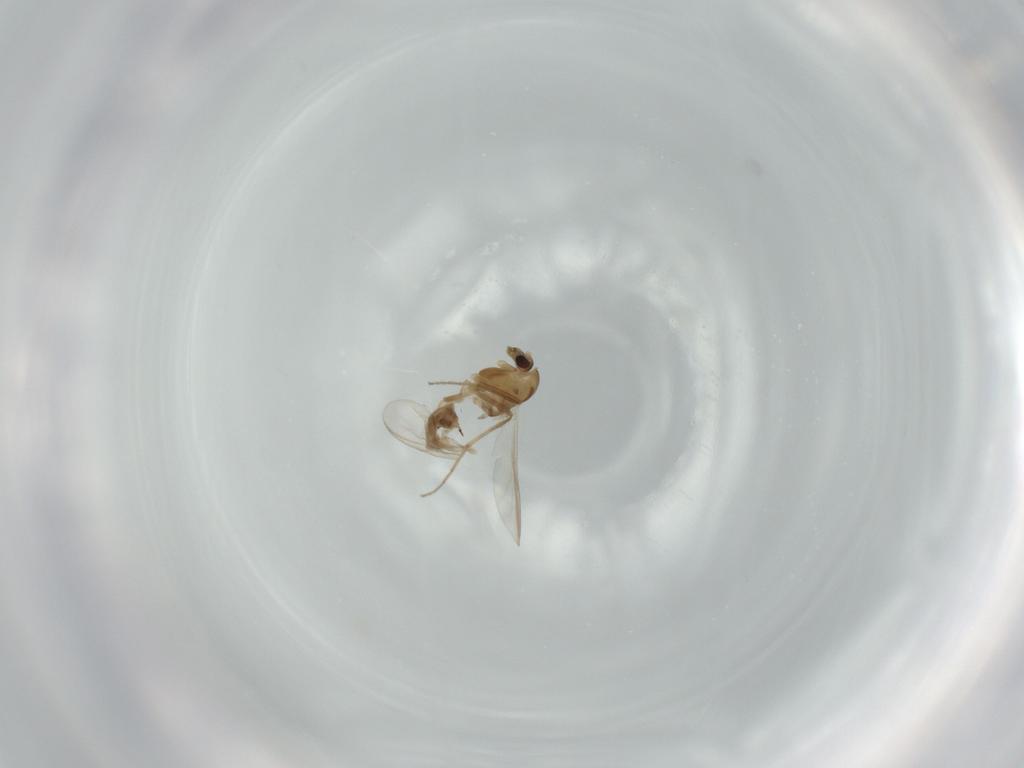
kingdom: Animalia
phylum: Arthropoda
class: Insecta
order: Diptera
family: Chironomidae
